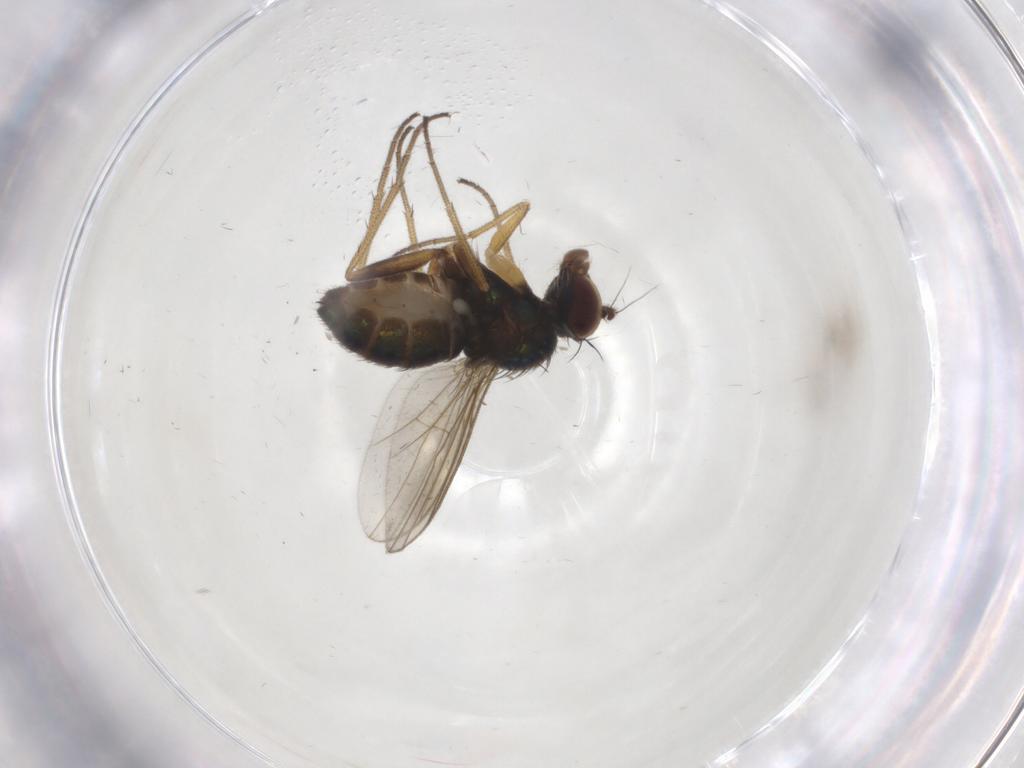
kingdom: Animalia
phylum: Arthropoda
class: Insecta
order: Diptera
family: Dolichopodidae
